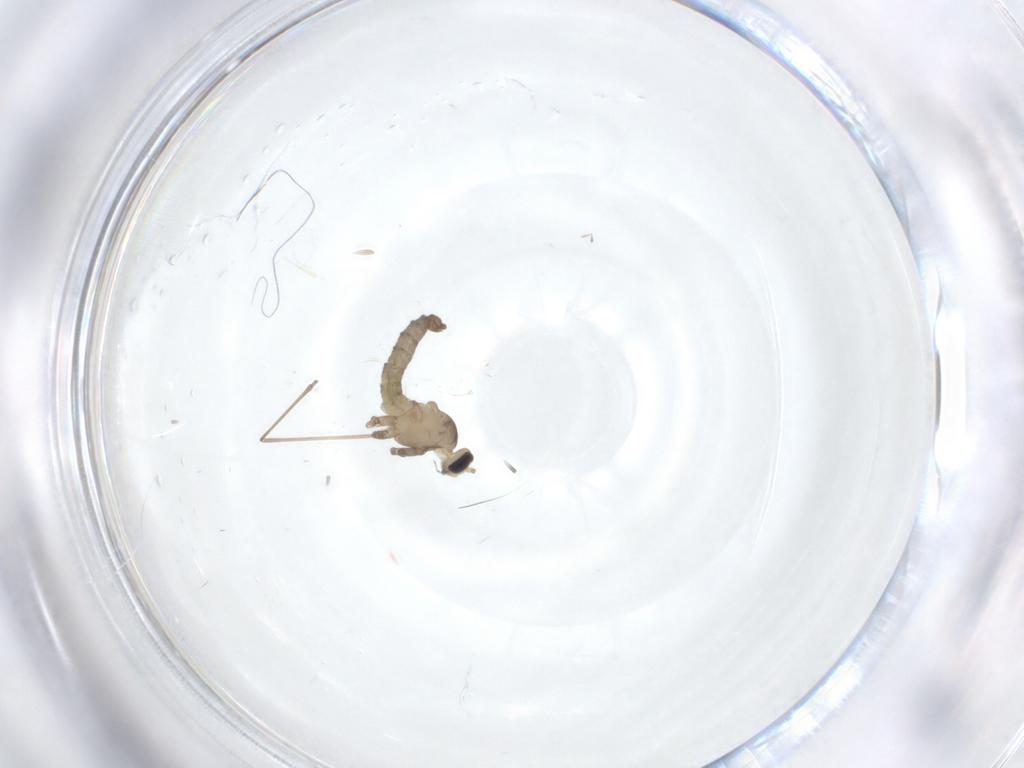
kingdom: Animalia
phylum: Arthropoda
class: Insecta
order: Diptera
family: Cecidomyiidae
